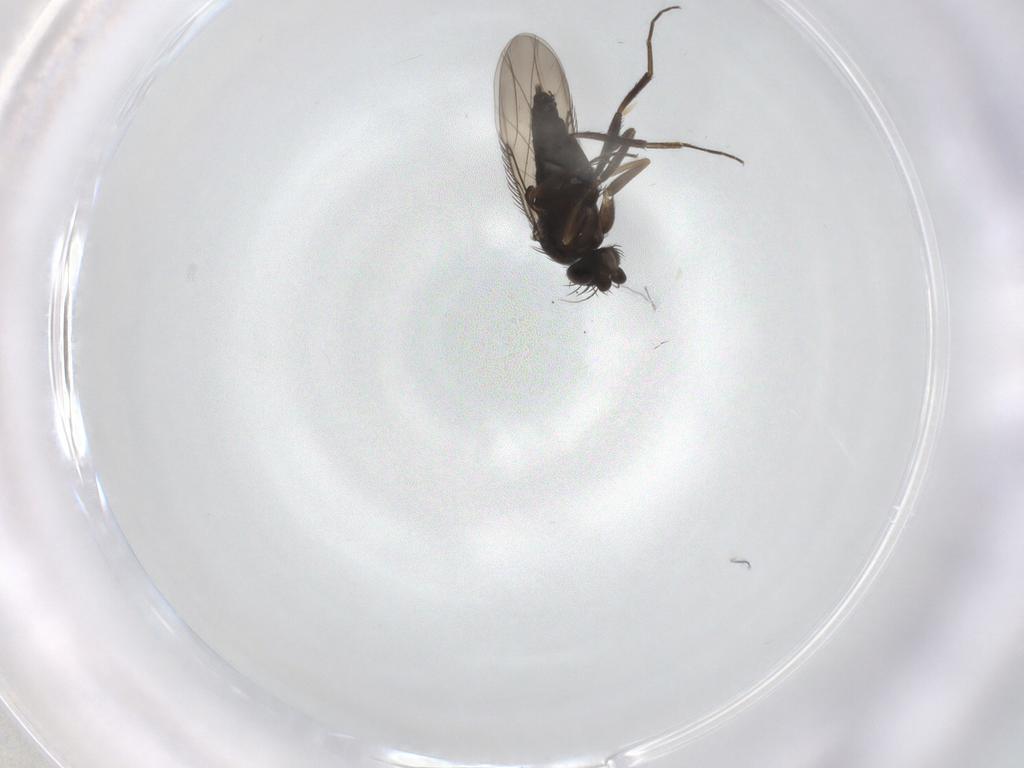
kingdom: Animalia
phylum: Arthropoda
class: Insecta
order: Diptera
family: Phoridae
